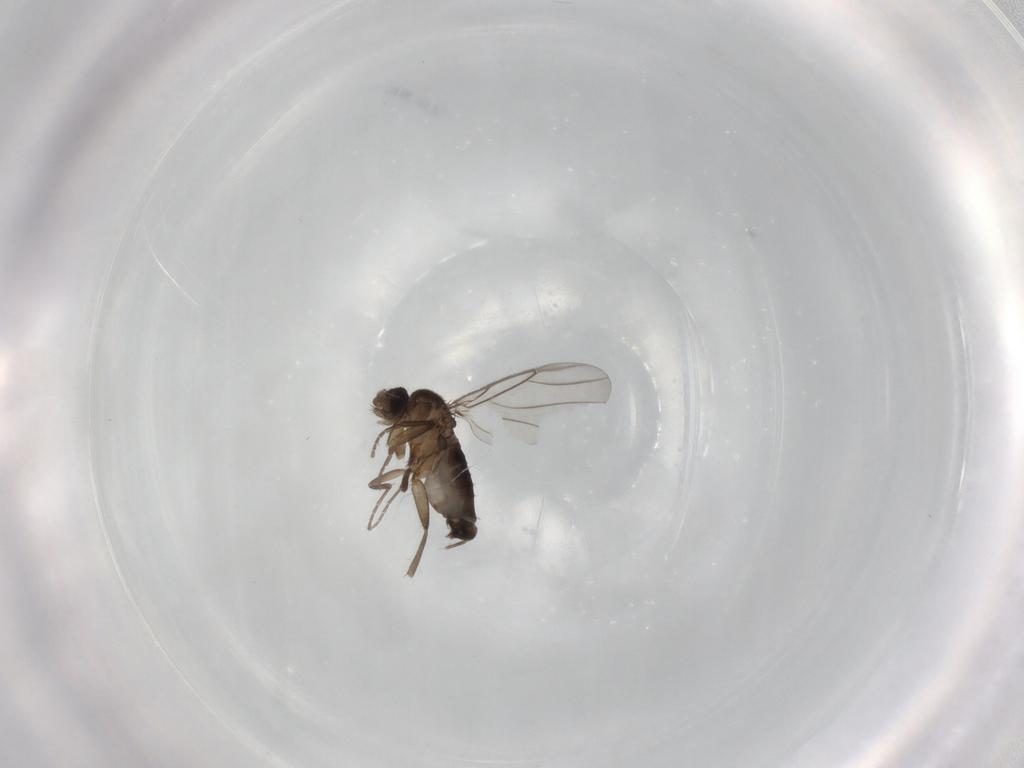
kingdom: Animalia
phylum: Arthropoda
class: Insecta
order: Diptera
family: Phoridae
